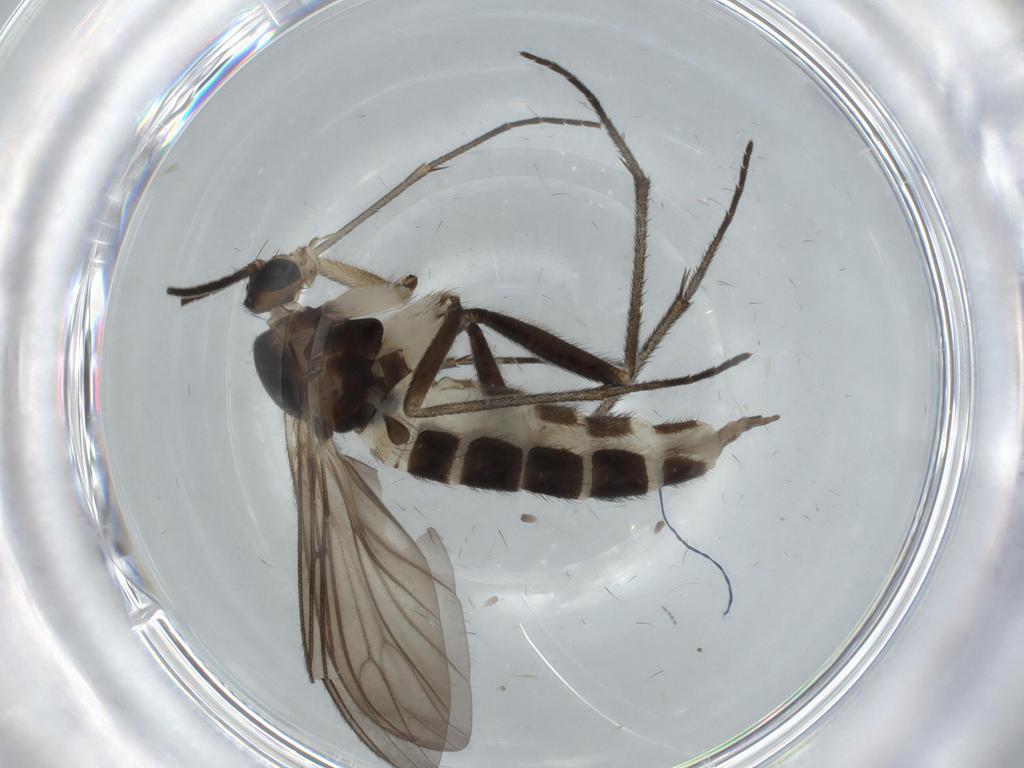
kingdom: Animalia
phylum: Arthropoda
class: Insecta
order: Diptera
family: Sciaridae
